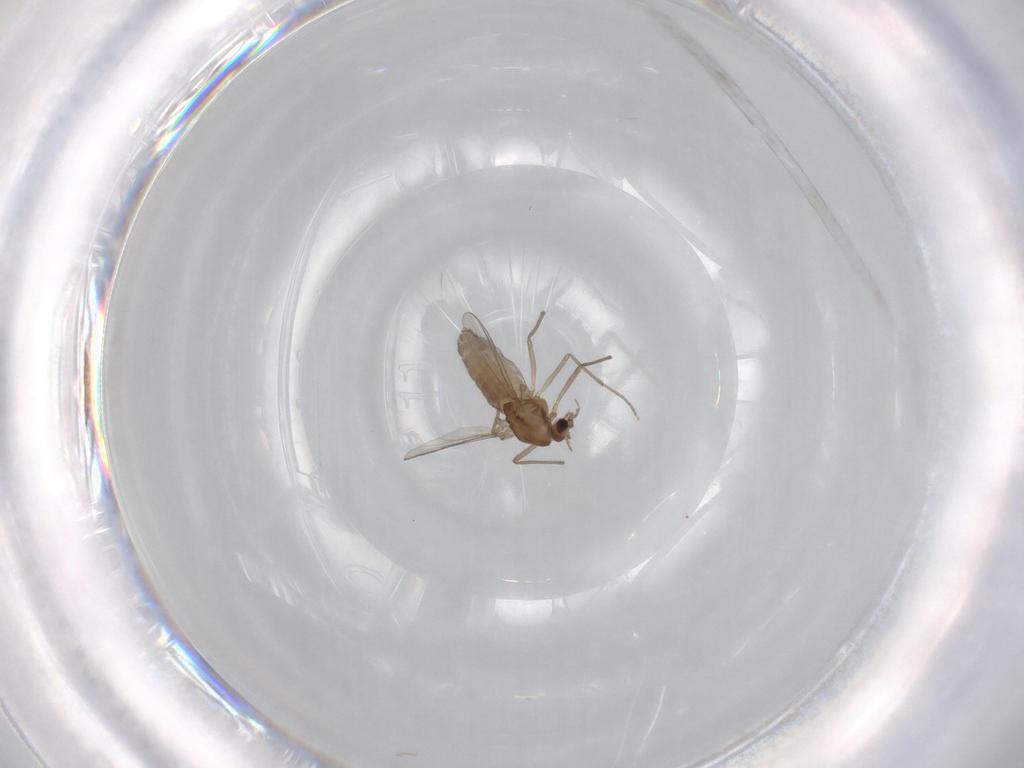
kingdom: Animalia
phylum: Arthropoda
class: Insecta
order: Diptera
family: Chironomidae
